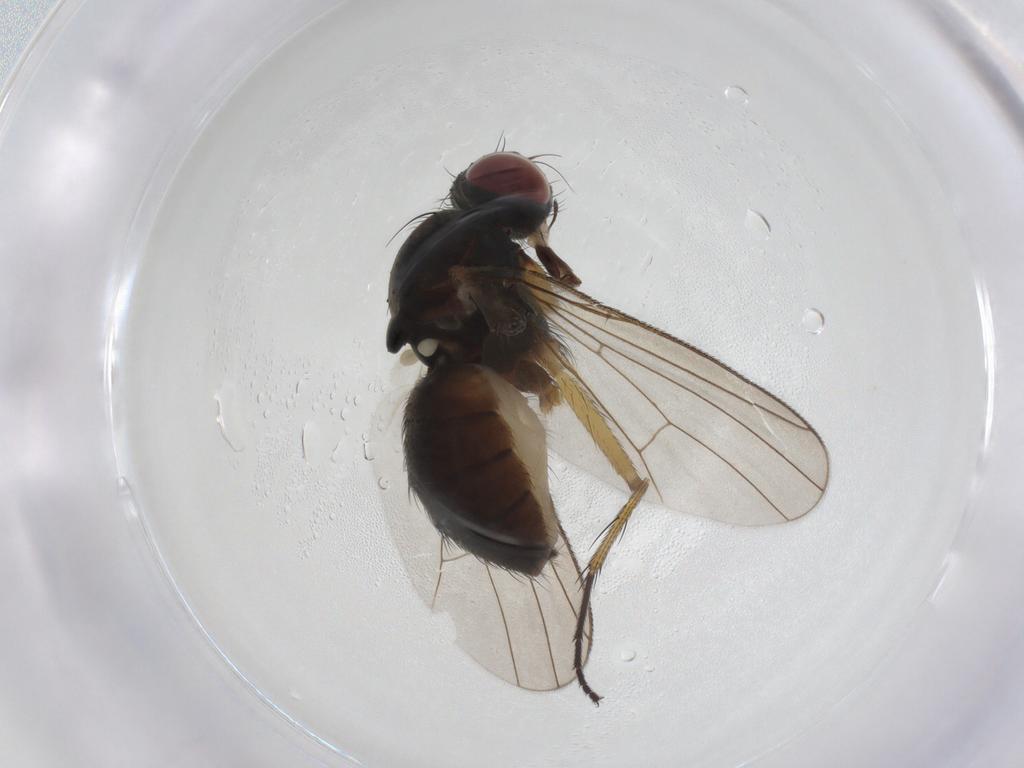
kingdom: Animalia
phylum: Arthropoda
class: Insecta
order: Diptera
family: Muscidae
